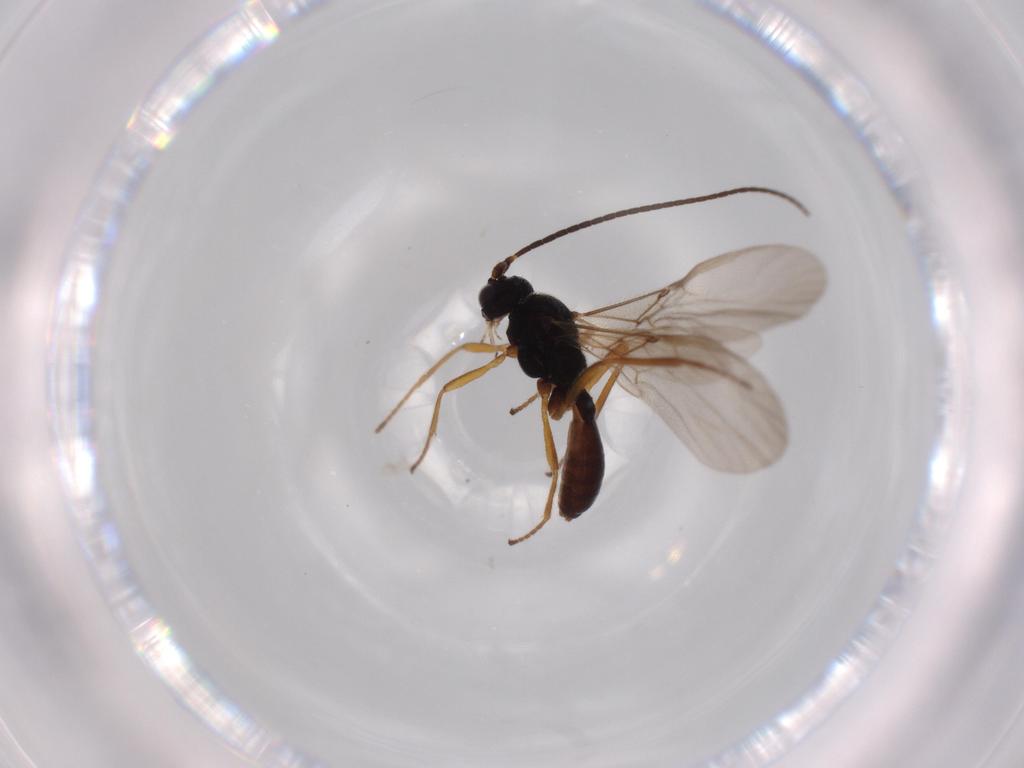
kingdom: Animalia
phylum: Arthropoda
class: Insecta
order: Hymenoptera
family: Braconidae
